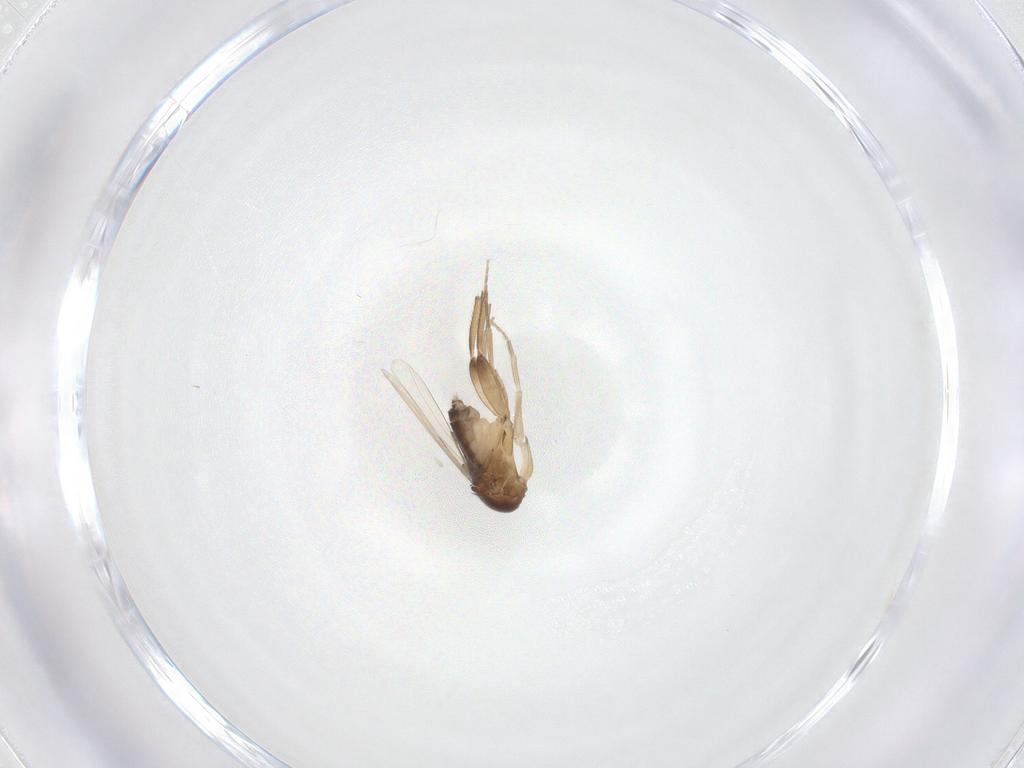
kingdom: Animalia
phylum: Arthropoda
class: Insecta
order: Diptera
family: Phoridae
